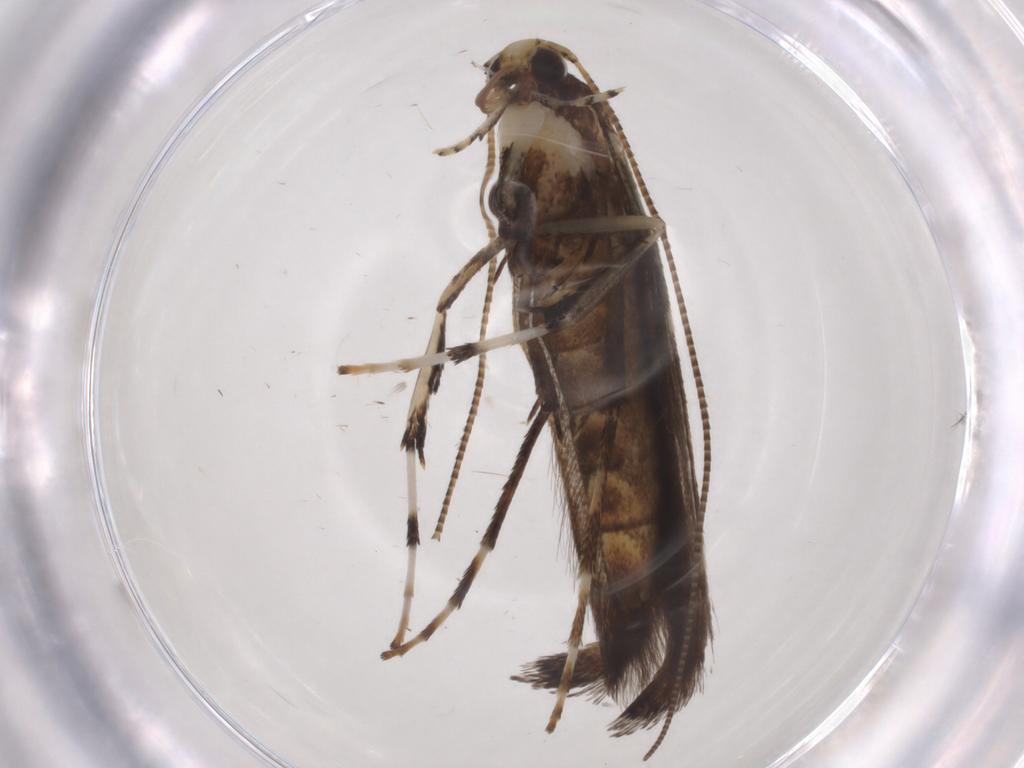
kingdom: Animalia
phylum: Arthropoda
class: Insecta
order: Lepidoptera
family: Gracillariidae
